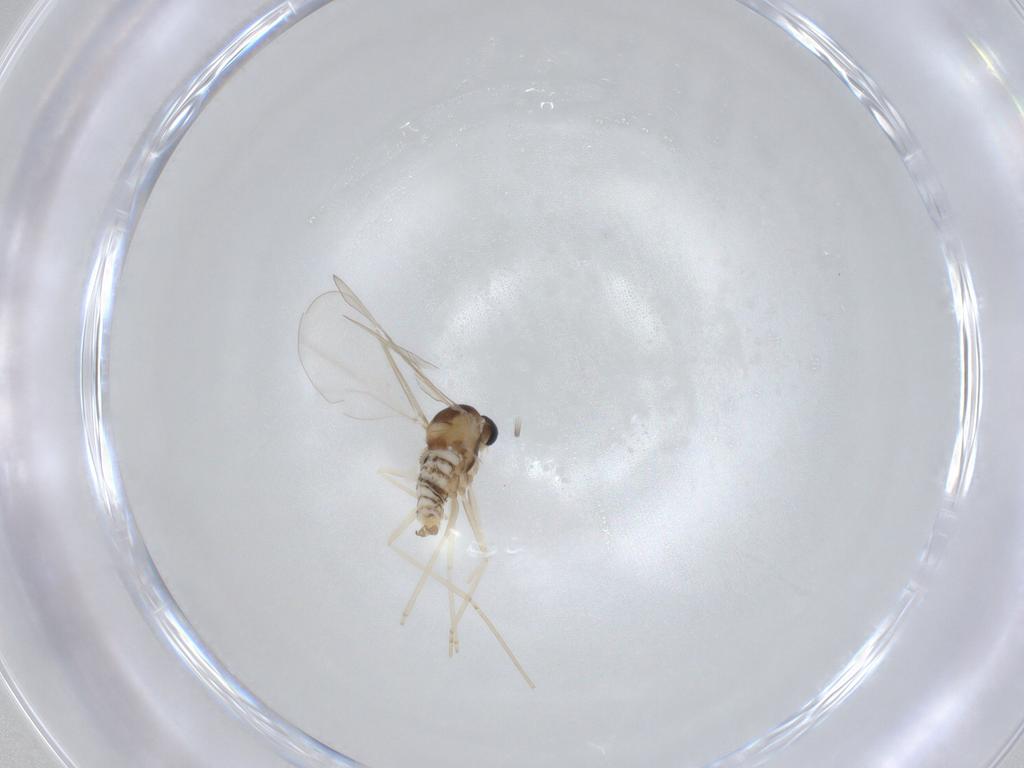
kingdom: Animalia
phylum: Arthropoda
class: Insecta
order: Diptera
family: Cecidomyiidae
